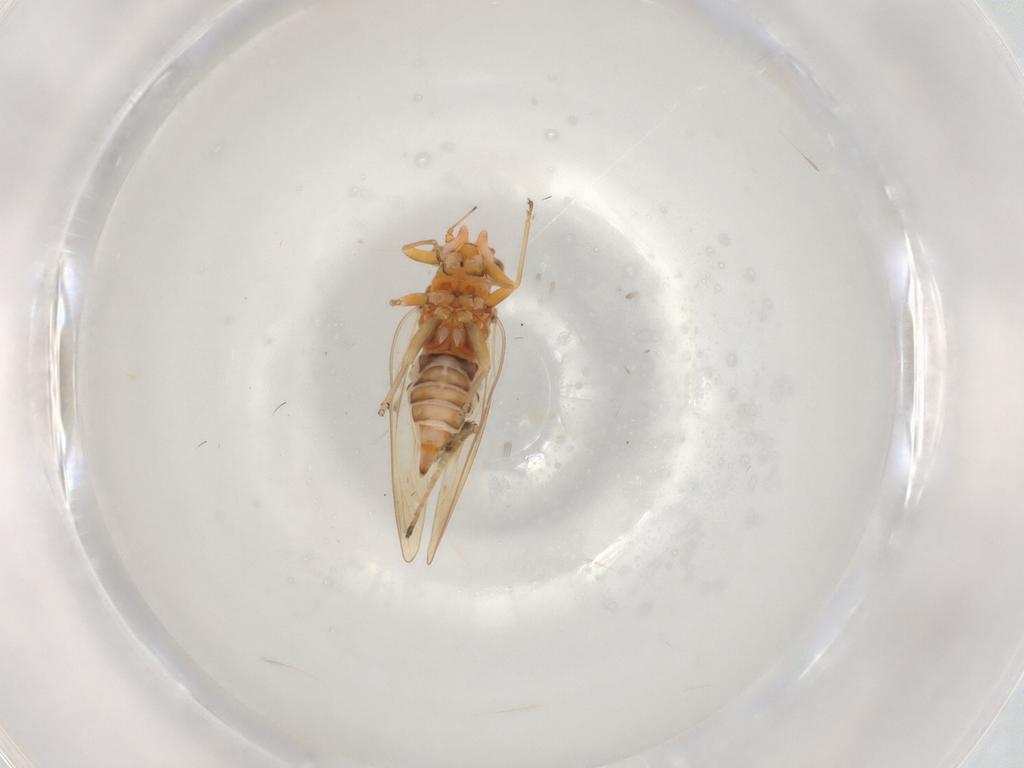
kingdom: Animalia
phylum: Arthropoda
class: Insecta
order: Hemiptera
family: Psyllidae
